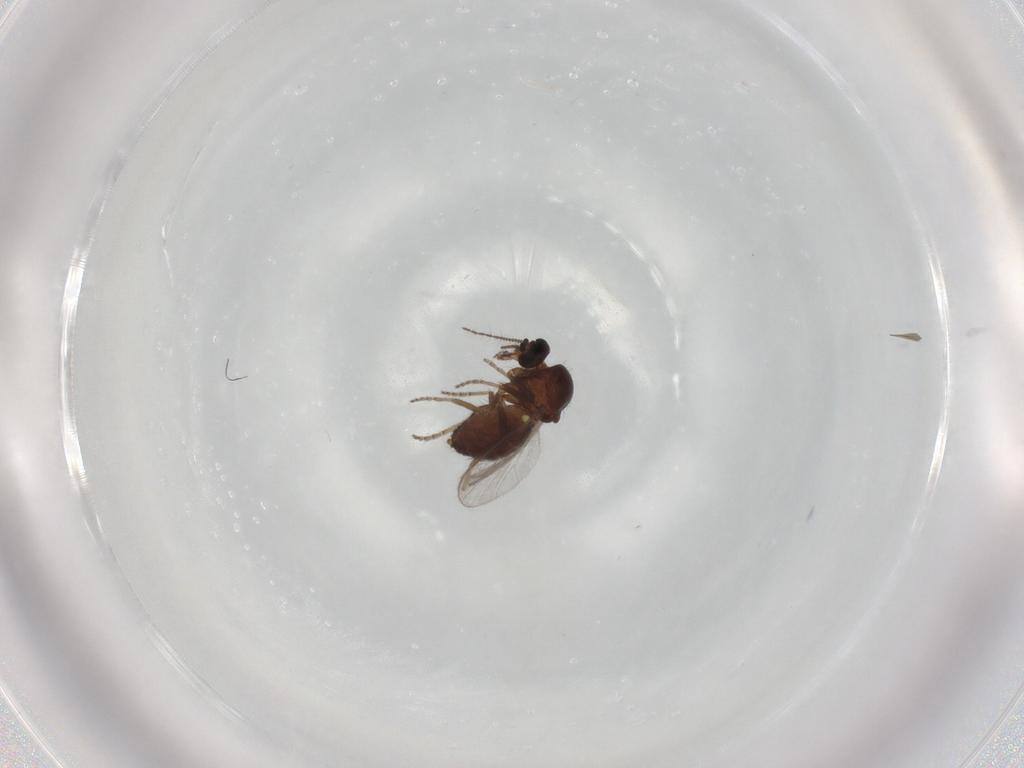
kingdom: Animalia
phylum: Arthropoda
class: Insecta
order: Diptera
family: Ceratopogonidae
